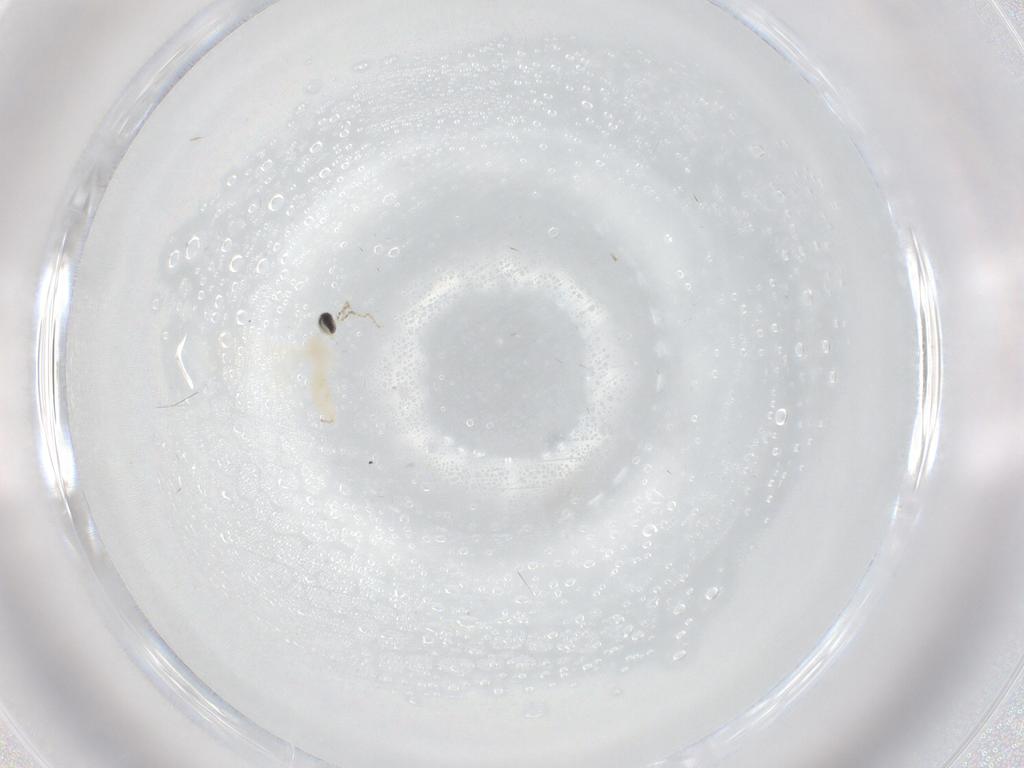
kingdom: Animalia
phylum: Arthropoda
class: Insecta
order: Diptera
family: Cecidomyiidae
